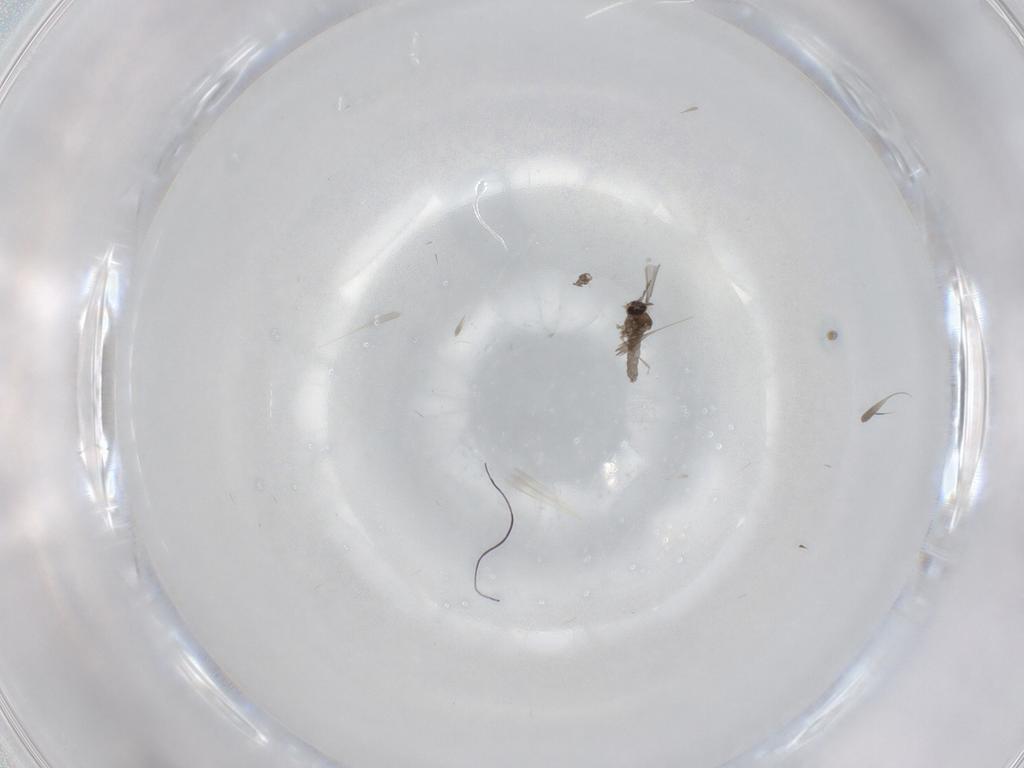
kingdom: Animalia
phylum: Arthropoda
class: Insecta
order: Diptera
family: Cecidomyiidae
